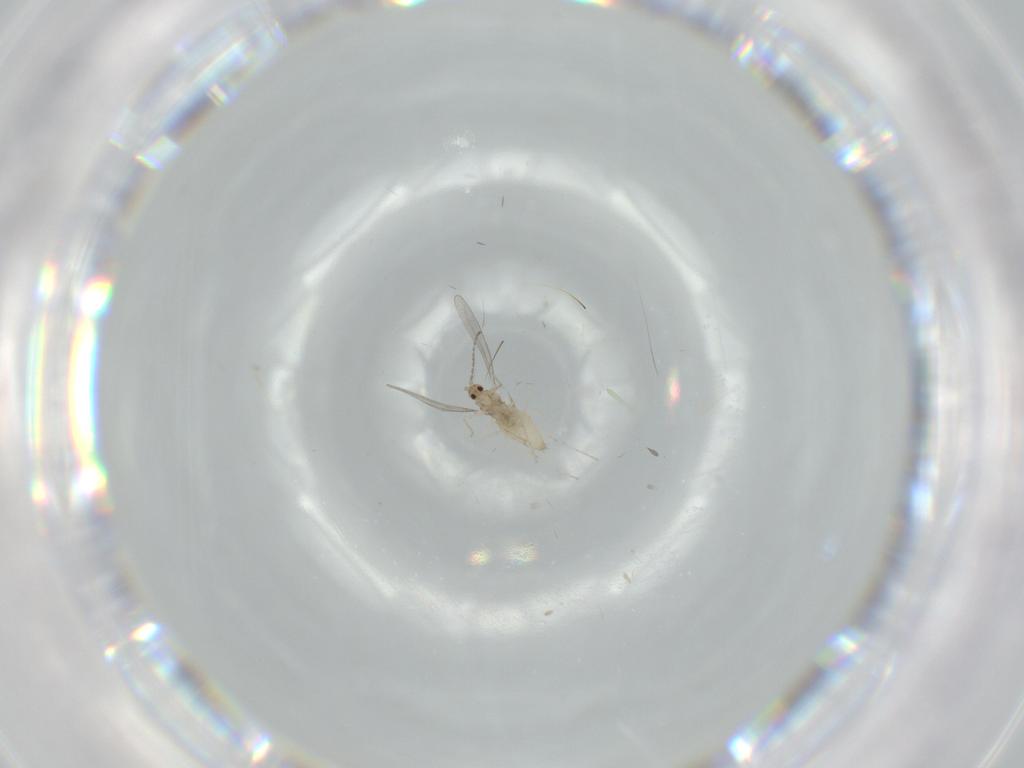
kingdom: Animalia
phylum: Arthropoda
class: Insecta
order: Diptera
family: Cecidomyiidae
